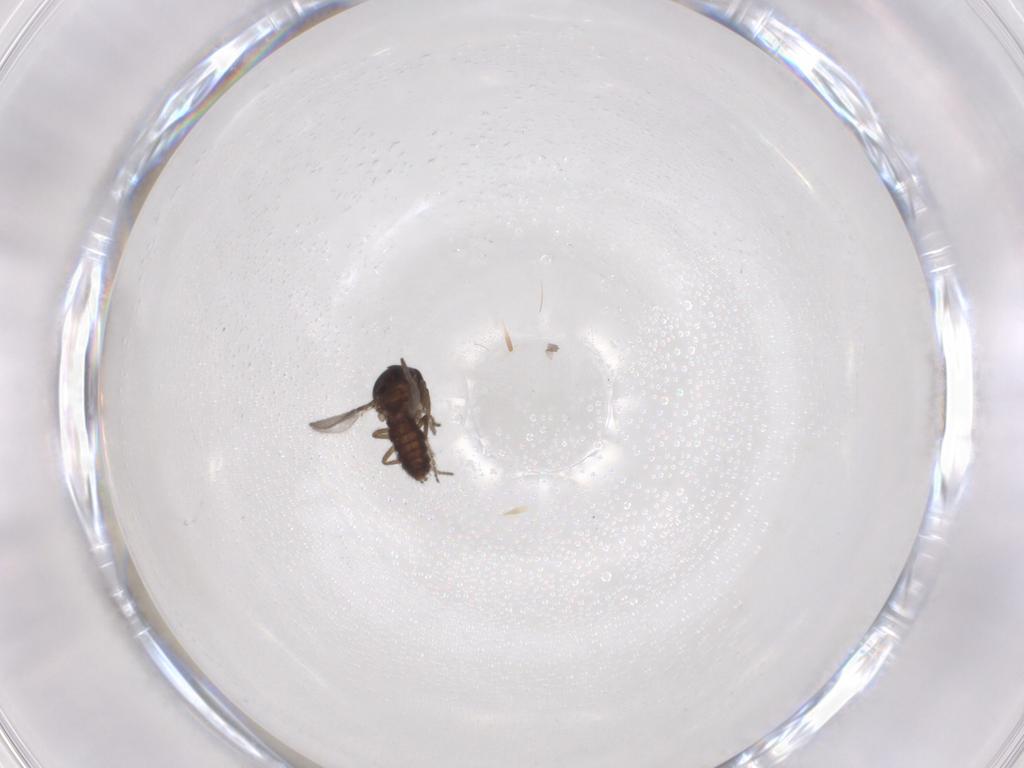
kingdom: Animalia
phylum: Arthropoda
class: Insecta
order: Diptera
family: Ceratopogonidae
